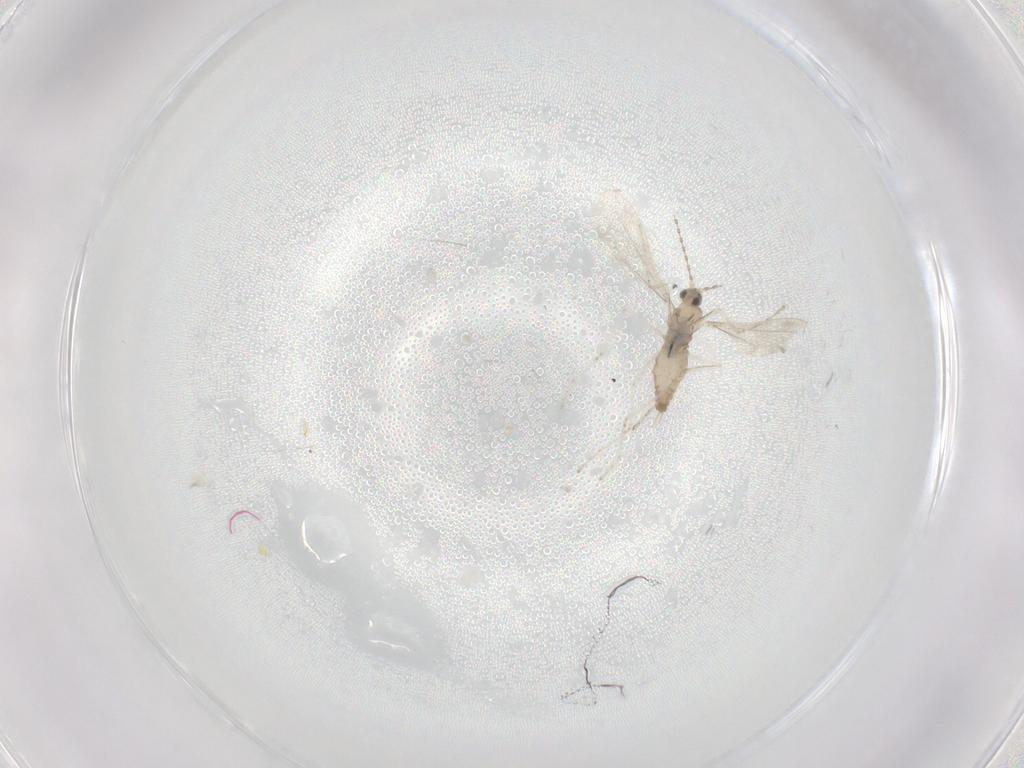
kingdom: Animalia
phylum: Arthropoda
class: Insecta
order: Diptera
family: Cecidomyiidae
